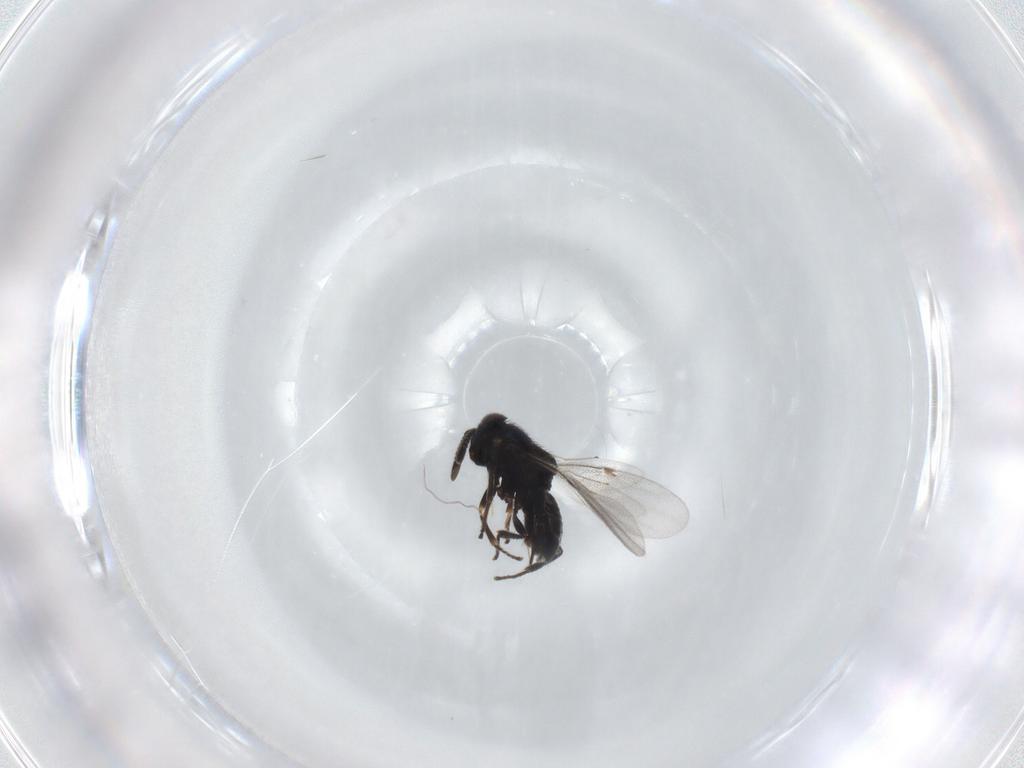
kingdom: Animalia
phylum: Arthropoda
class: Insecta
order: Hymenoptera
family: Encyrtidae
